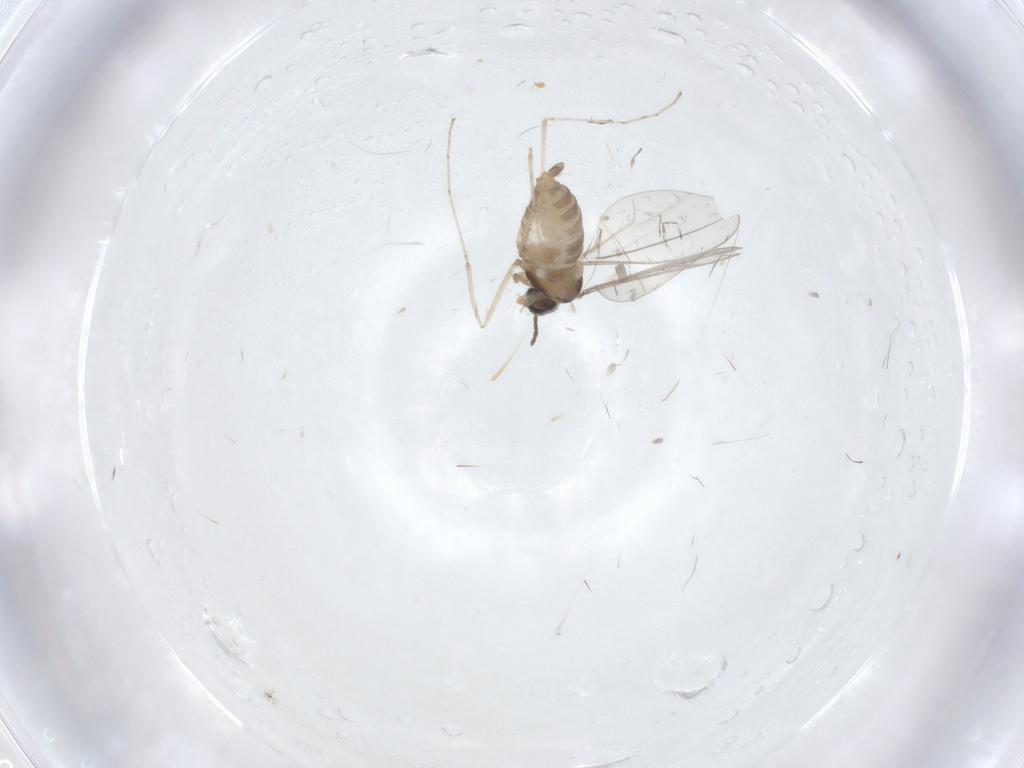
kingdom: Animalia
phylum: Arthropoda
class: Insecta
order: Diptera
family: Cecidomyiidae
